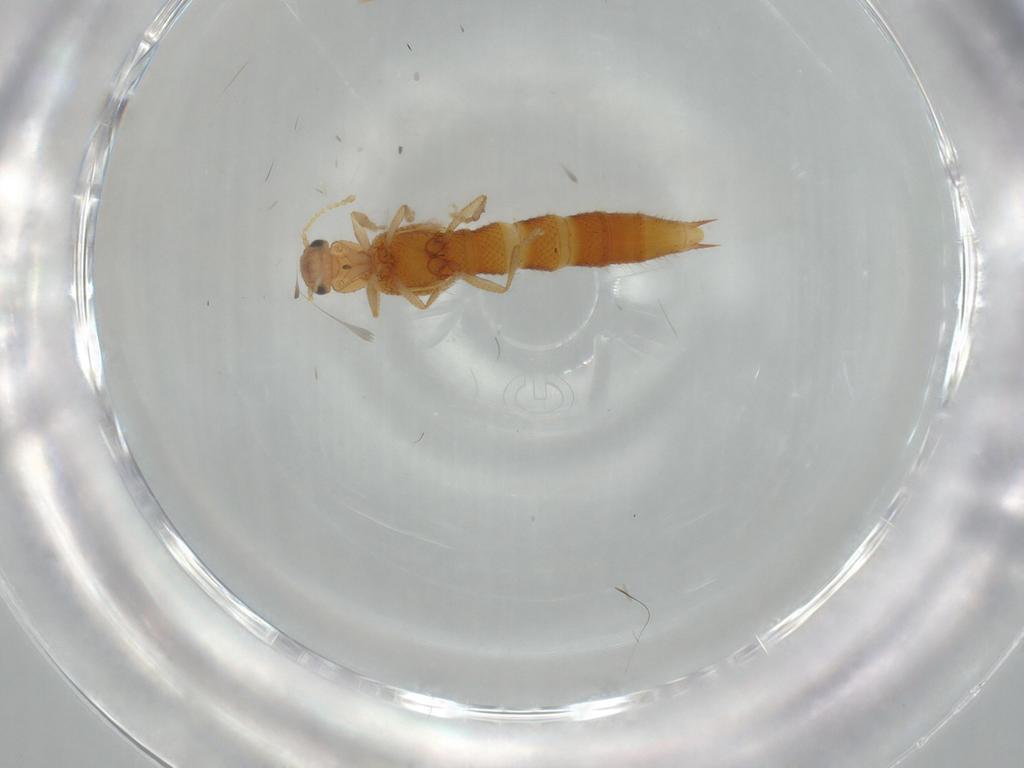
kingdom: Animalia
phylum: Arthropoda
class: Insecta
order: Coleoptera
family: Staphylinidae
